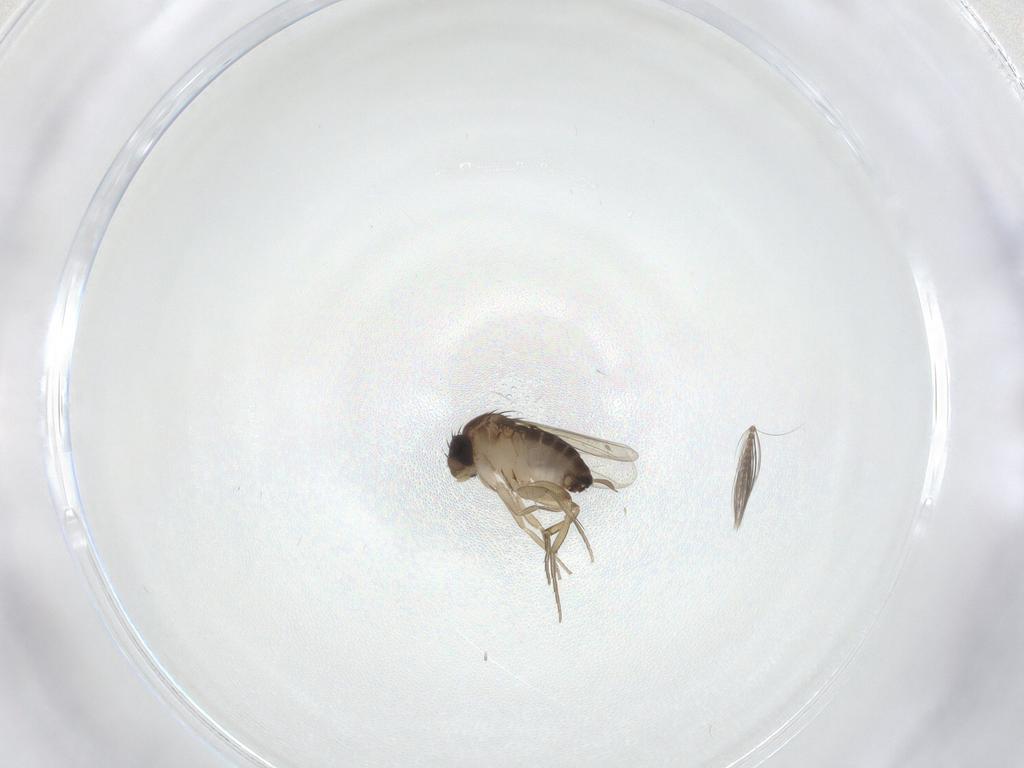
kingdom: Animalia
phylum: Arthropoda
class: Insecta
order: Diptera
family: Ceratopogonidae
